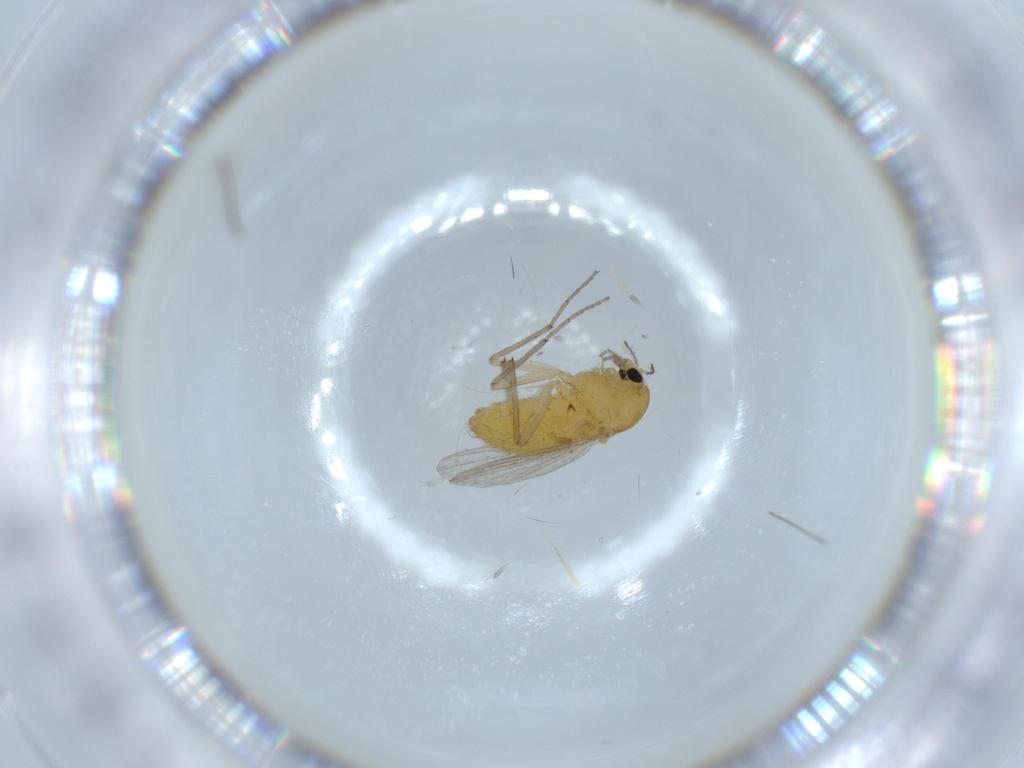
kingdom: Animalia
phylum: Arthropoda
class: Insecta
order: Diptera
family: Chironomidae
